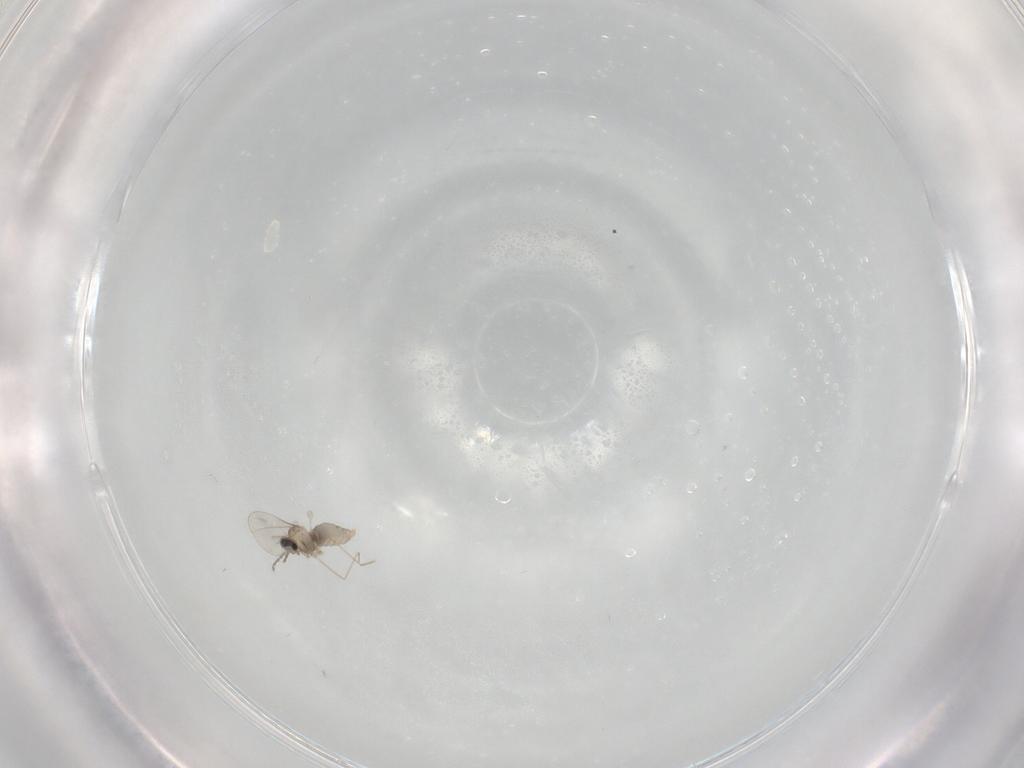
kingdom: Animalia
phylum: Arthropoda
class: Insecta
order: Diptera
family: Cecidomyiidae
